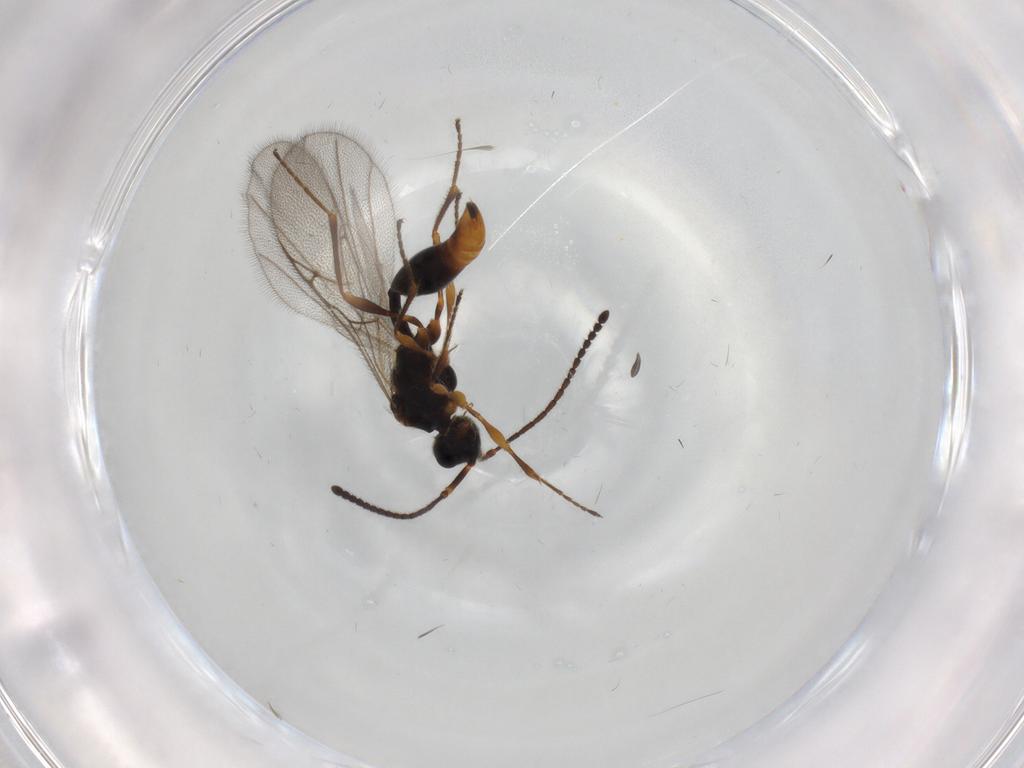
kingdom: Animalia
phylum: Arthropoda
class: Insecta
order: Hymenoptera
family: Diapriidae
